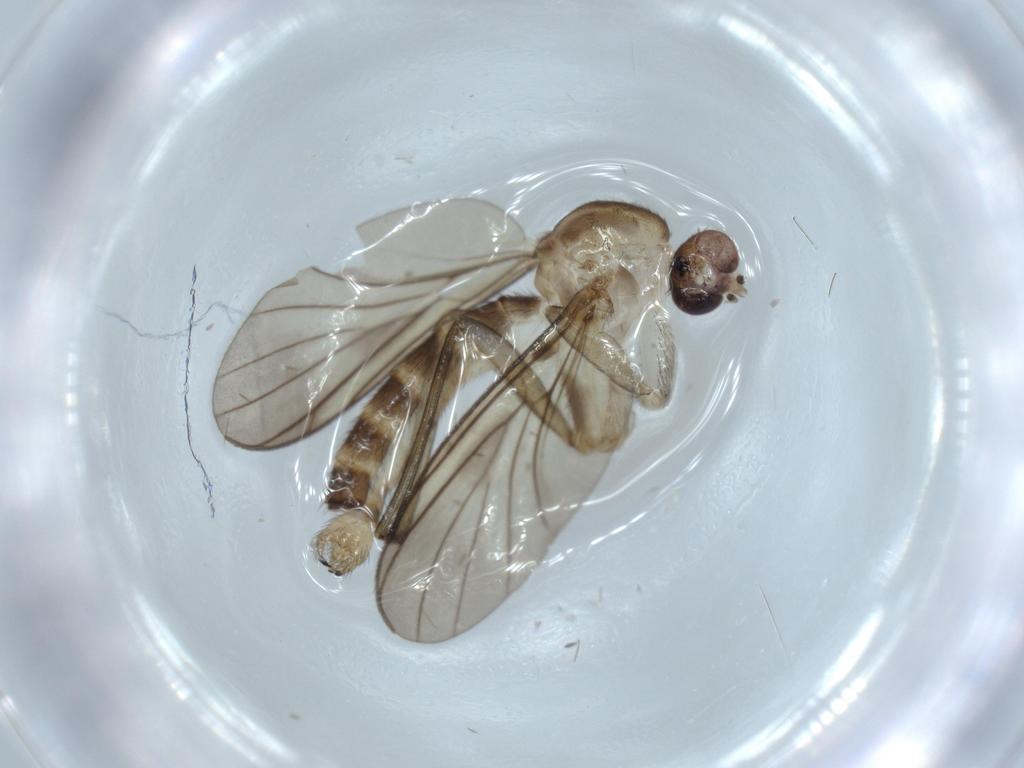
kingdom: Animalia
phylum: Arthropoda
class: Insecta
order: Diptera
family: Mycetophilidae
